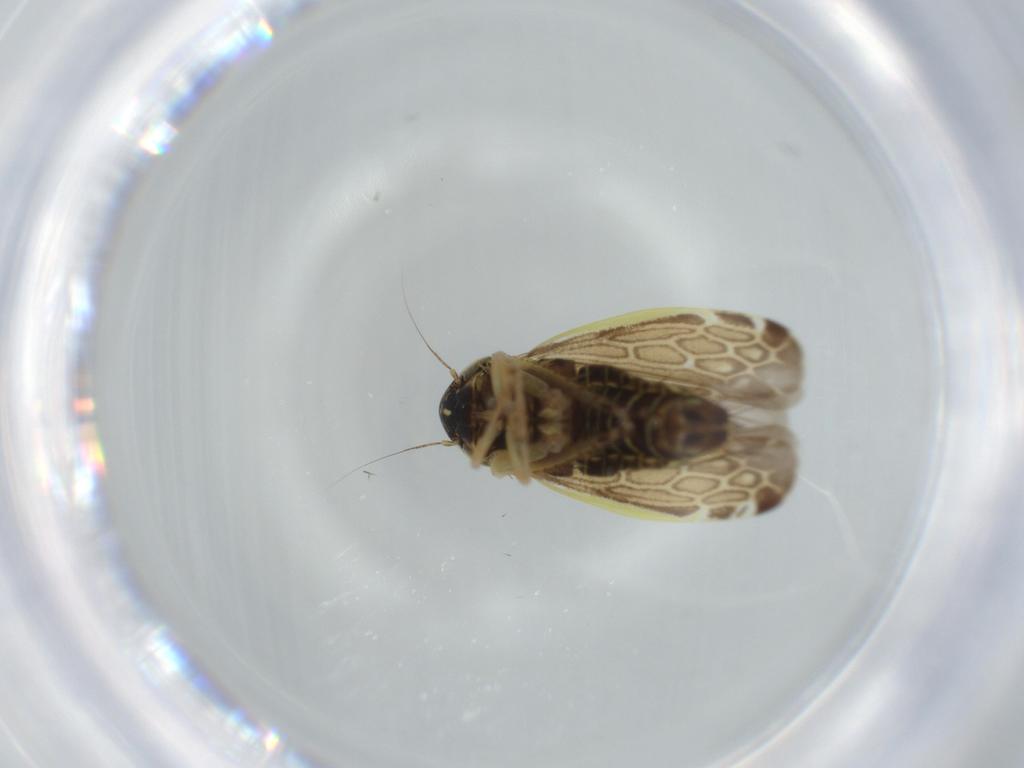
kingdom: Animalia
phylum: Arthropoda
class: Insecta
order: Hemiptera
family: Cicadellidae
